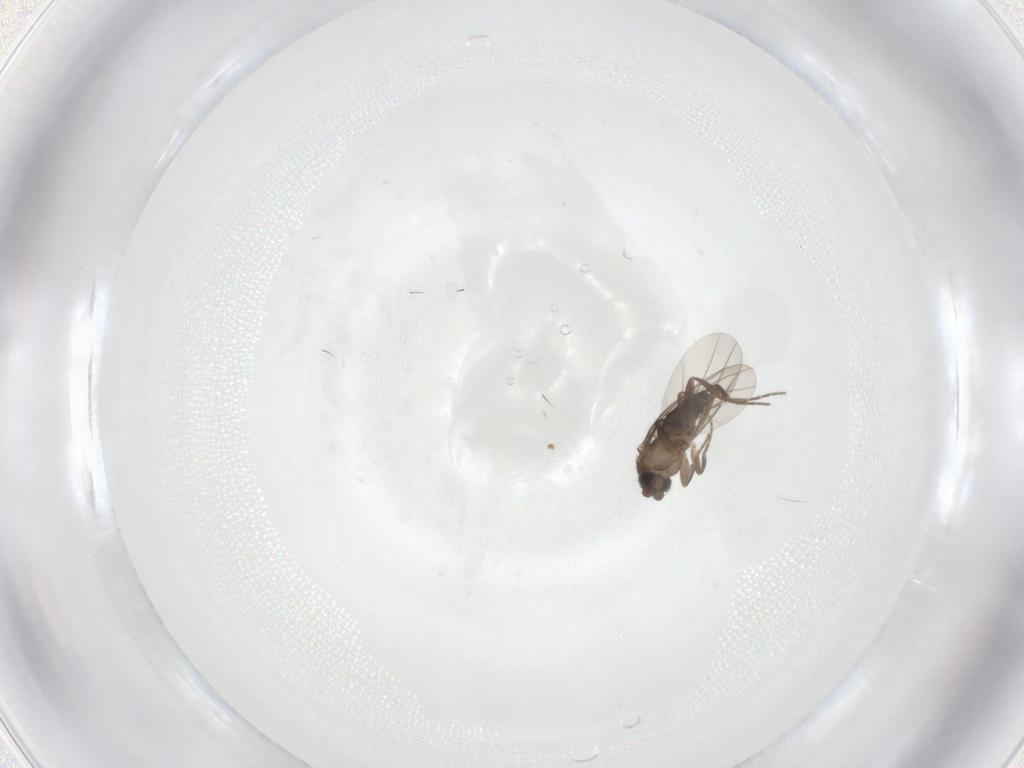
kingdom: Animalia
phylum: Arthropoda
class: Insecta
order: Diptera
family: Phoridae
